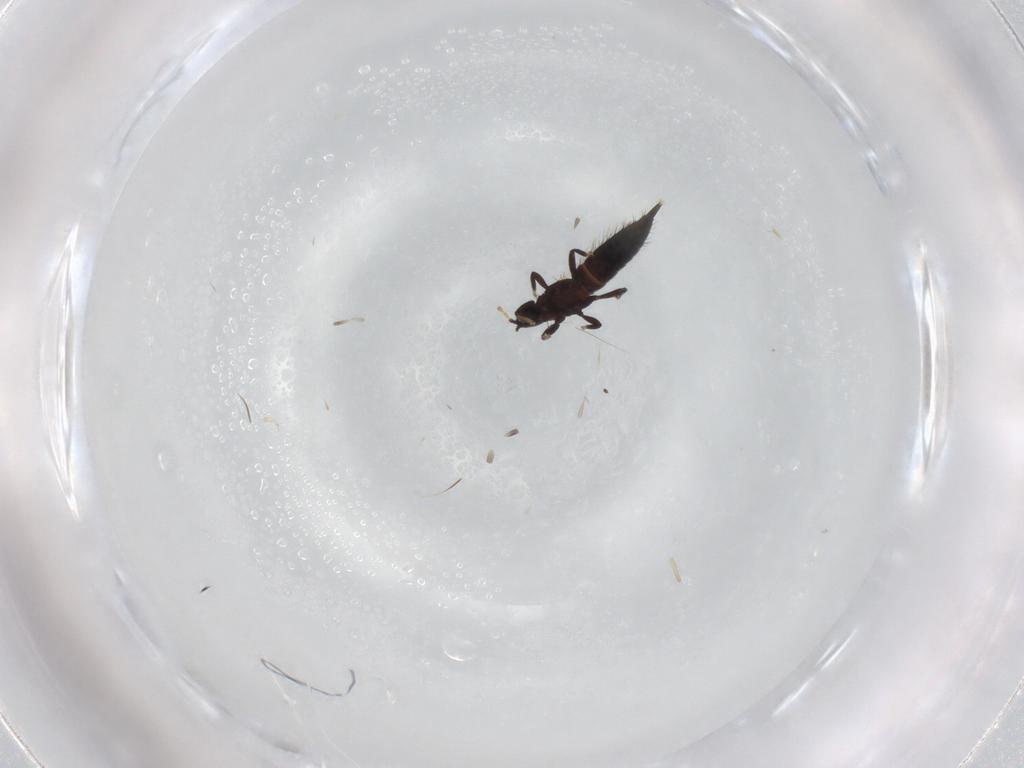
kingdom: Animalia
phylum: Arthropoda
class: Insecta
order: Thysanoptera
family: Phlaeothripidae
